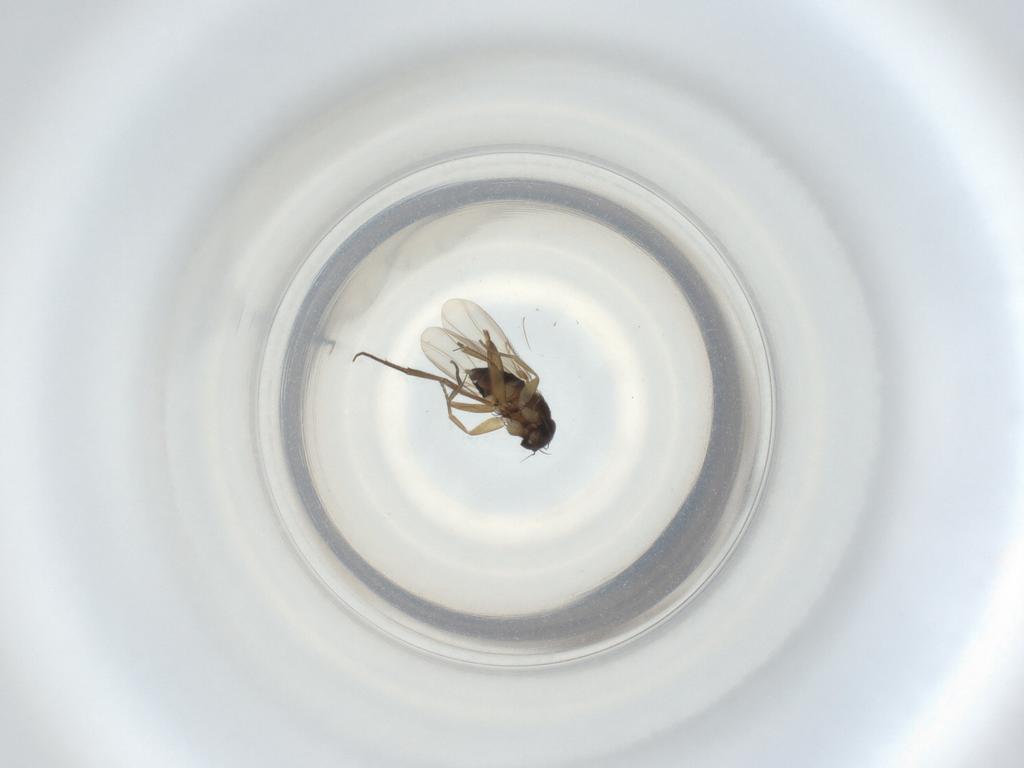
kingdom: Animalia
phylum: Arthropoda
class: Insecta
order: Diptera
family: Phoridae
